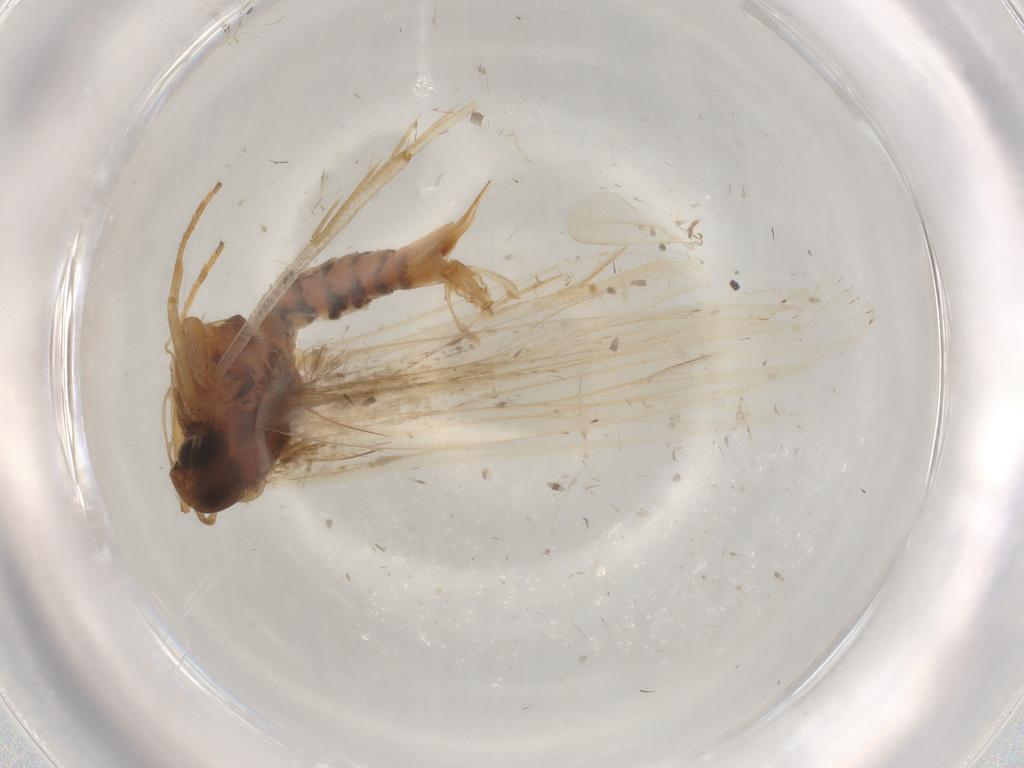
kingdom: Animalia
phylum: Arthropoda
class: Insecta
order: Lepidoptera
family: Gelechiidae
